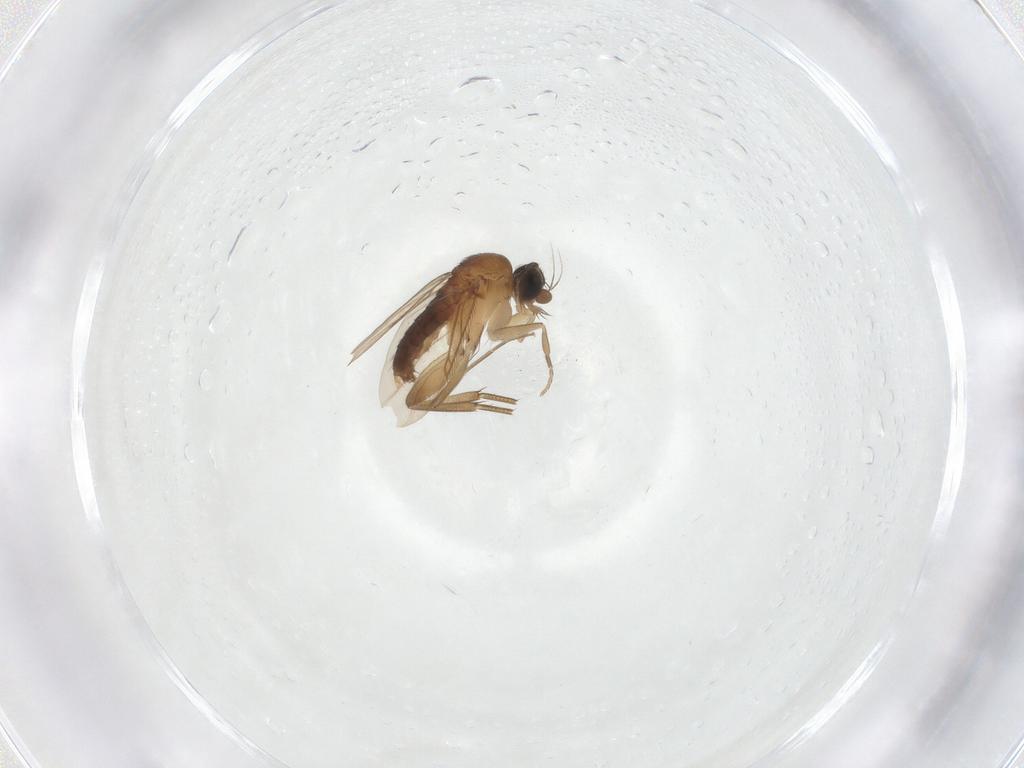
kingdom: Animalia
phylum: Arthropoda
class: Insecta
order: Diptera
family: Phoridae
